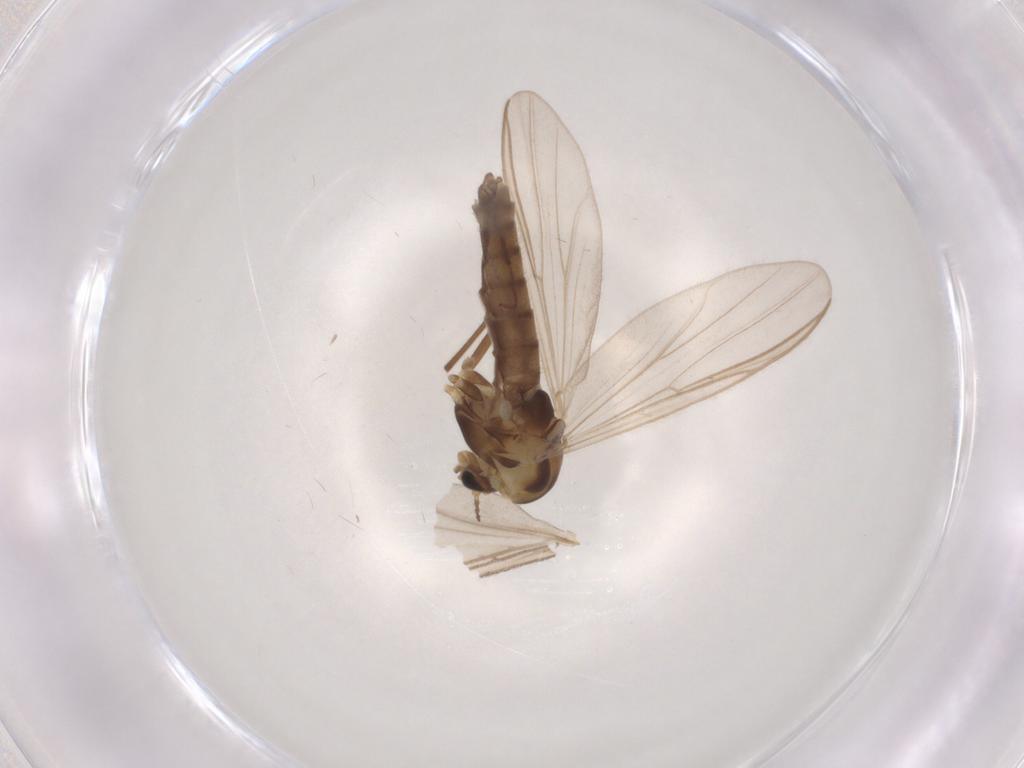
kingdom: Animalia
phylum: Arthropoda
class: Insecta
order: Diptera
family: Chironomidae
